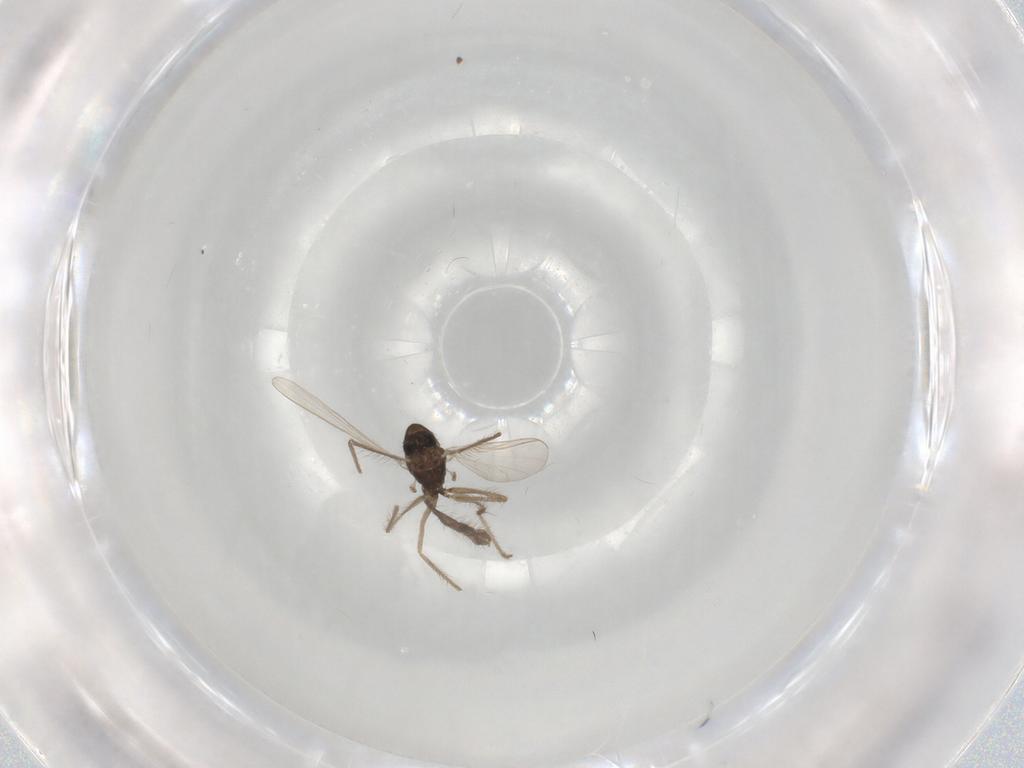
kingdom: Animalia
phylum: Arthropoda
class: Insecta
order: Diptera
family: Chironomidae
